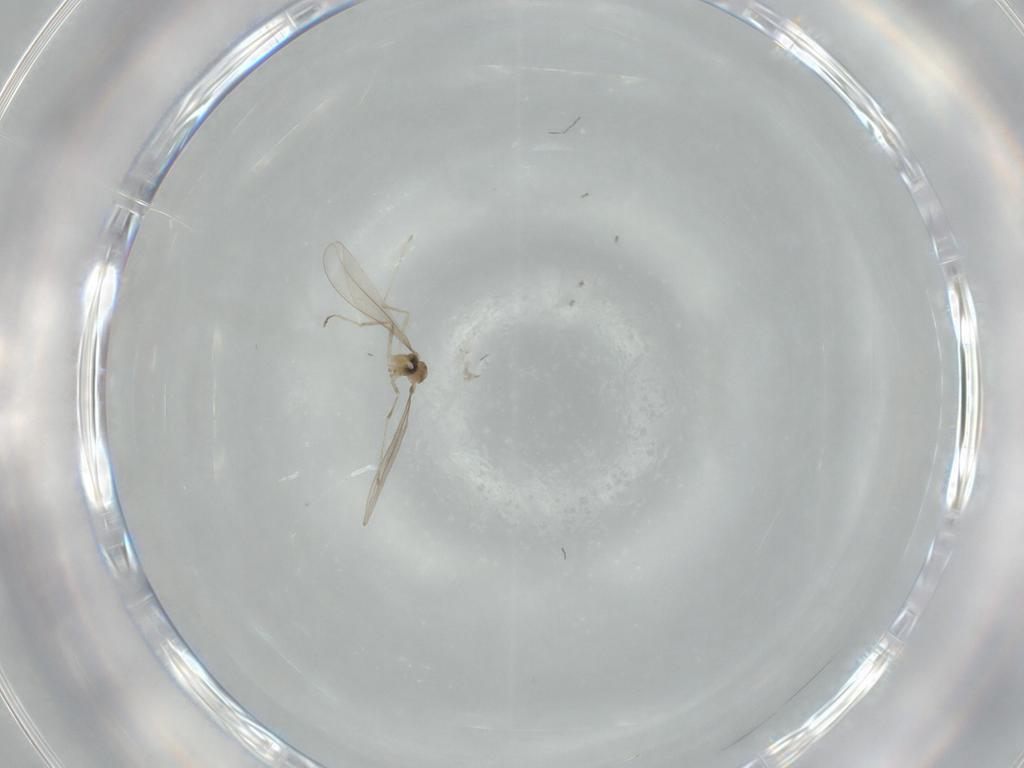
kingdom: Animalia
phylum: Arthropoda
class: Insecta
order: Diptera
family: Cecidomyiidae
